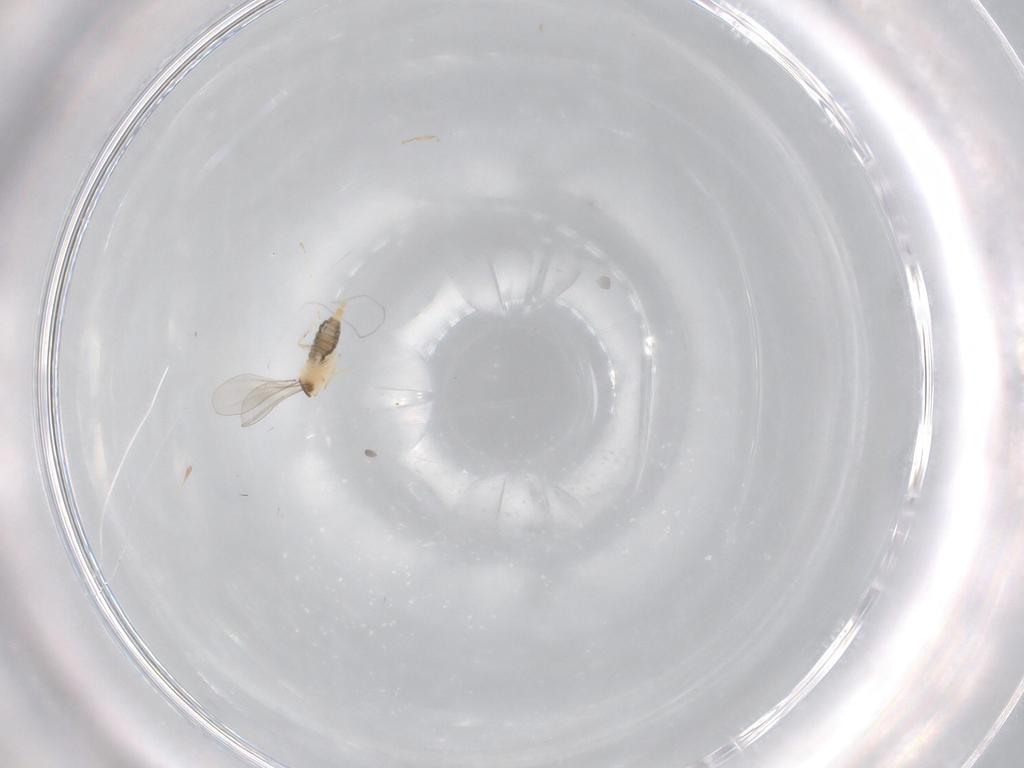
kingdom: Animalia
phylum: Arthropoda
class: Insecta
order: Diptera
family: Cecidomyiidae
